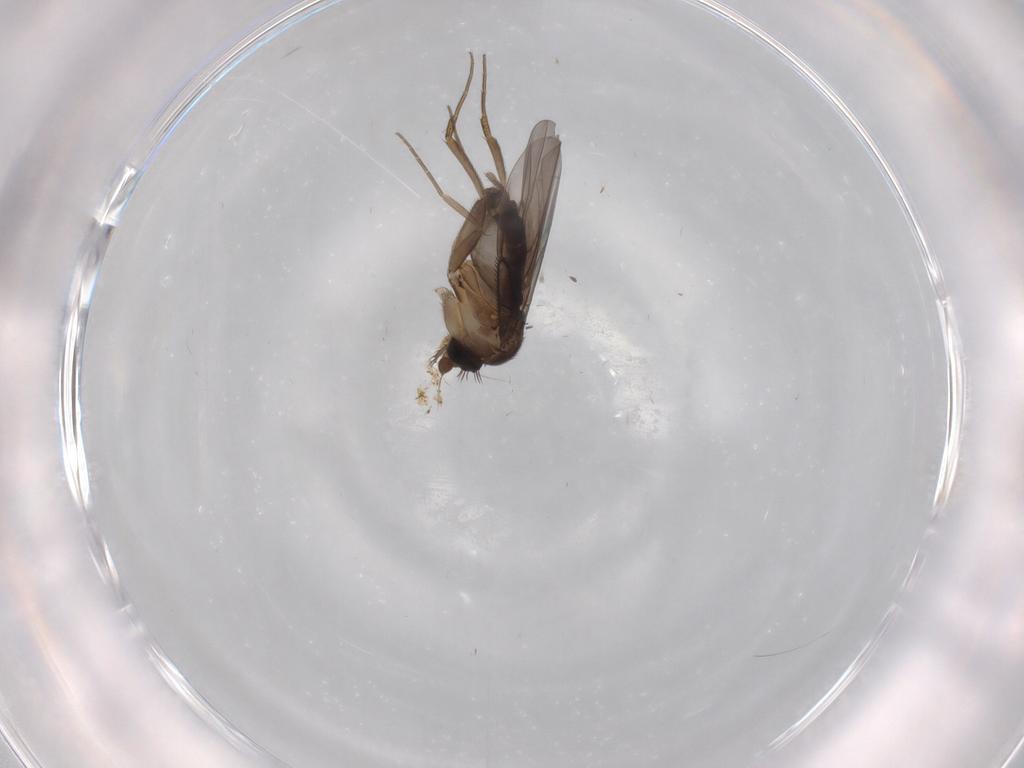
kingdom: Animalia
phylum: Arthropoda
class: Insecta
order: Diptera
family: Phoridae
